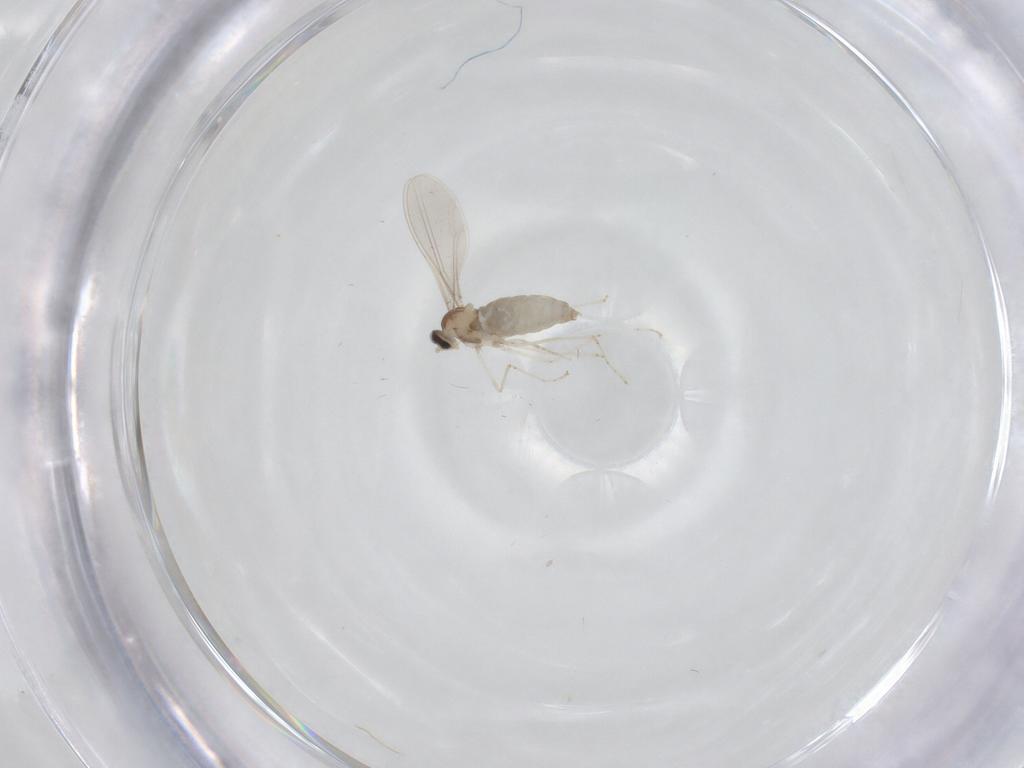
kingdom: Animalia
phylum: Arthropoda
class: Insecta
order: Diptera
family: Cecidomyiidae
